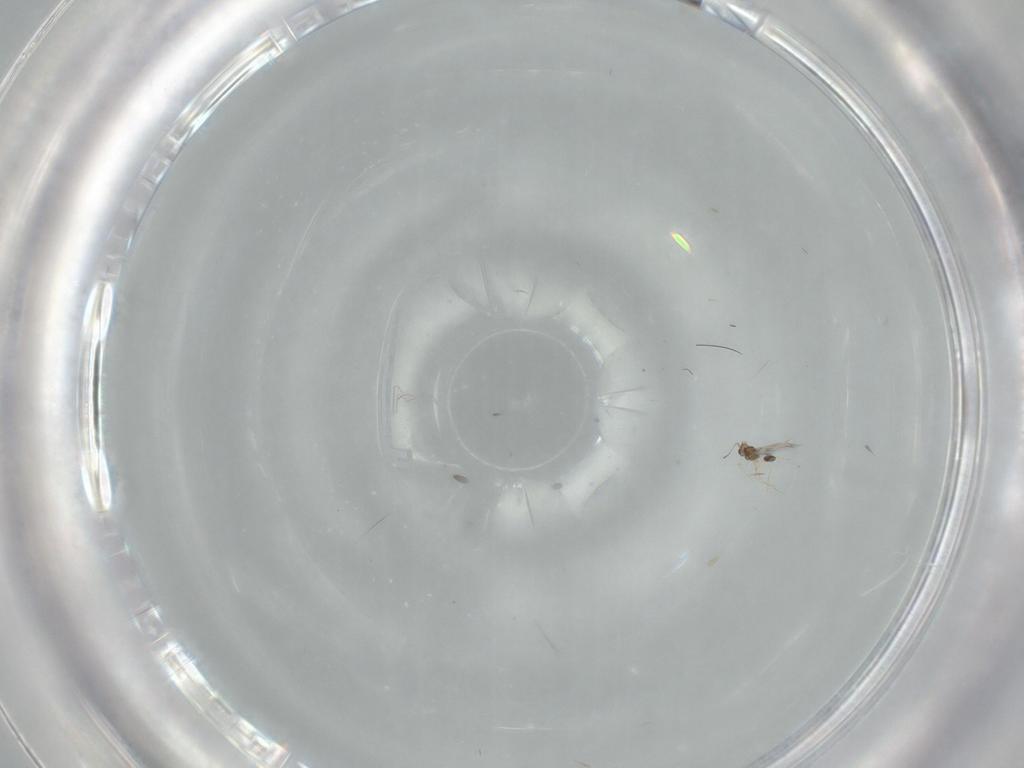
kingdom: Animalia
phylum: Arthropoda
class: Insecta
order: Hymenoptera
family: Mymarommatidae
